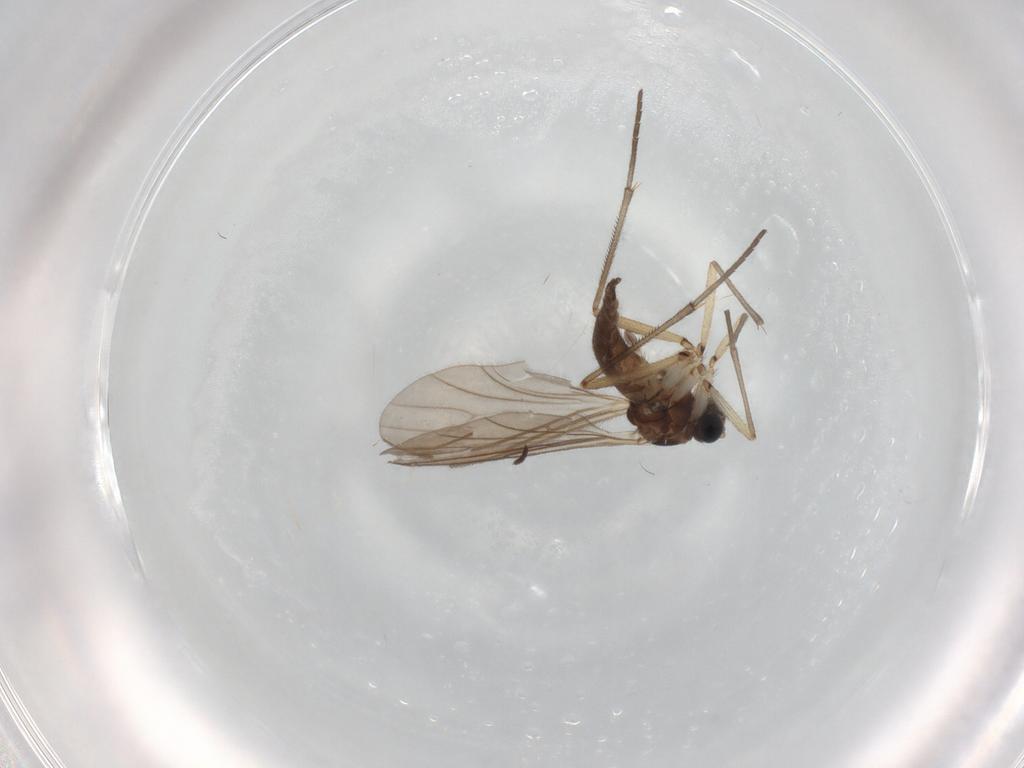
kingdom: Animalia
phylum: Arthropoda
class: Insecta
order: Diptera
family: Sciaridae
